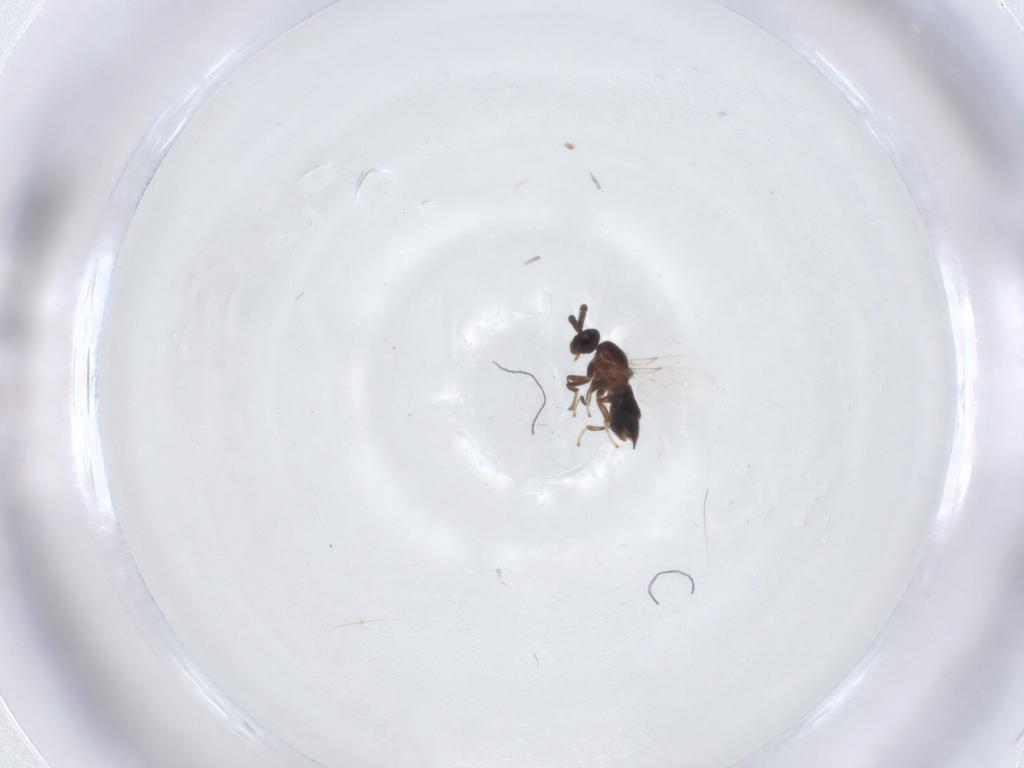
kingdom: Animalia
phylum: Arthropoda
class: Insecta
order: Diptera
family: Scatopsidae
